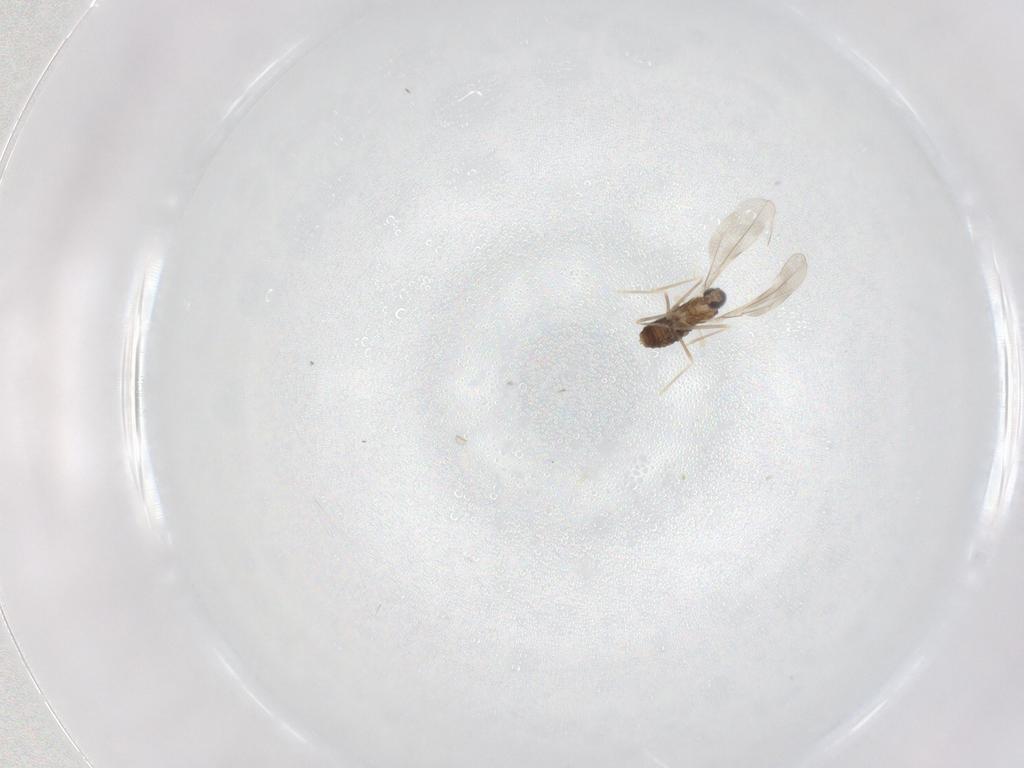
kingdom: Animalia
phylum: Arthropoda
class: Insecta
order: Diptera
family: Cecidomyiidae
